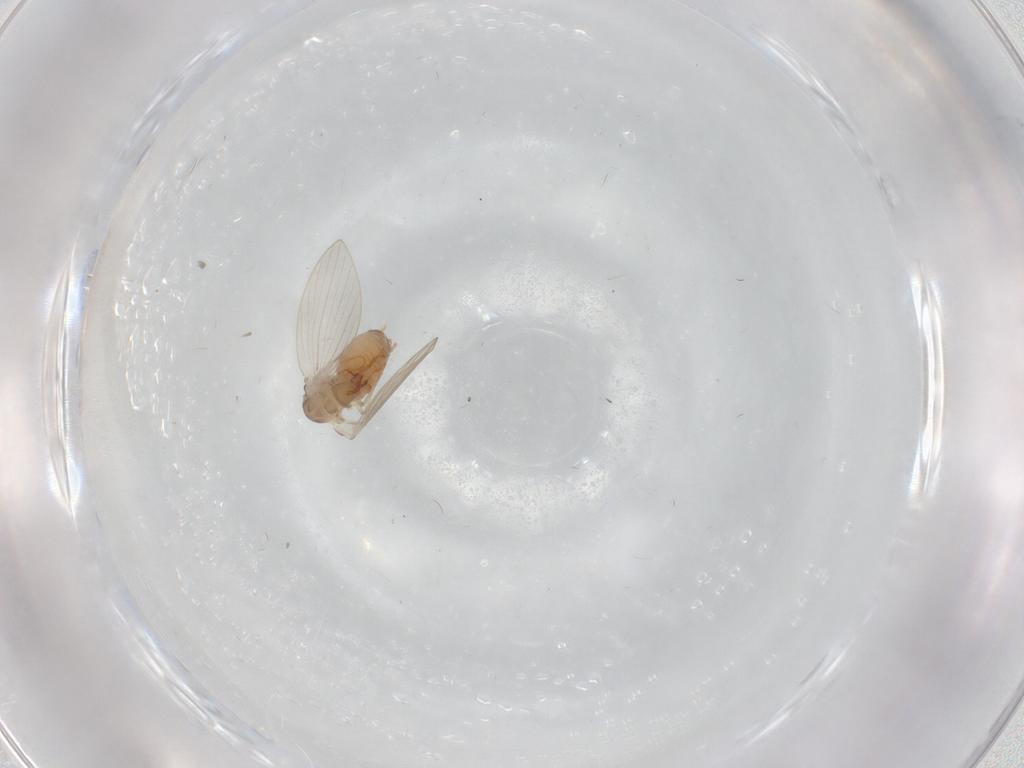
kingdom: Animalia
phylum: Arthropoda
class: Insecta
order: Diptera
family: Psychodidae
